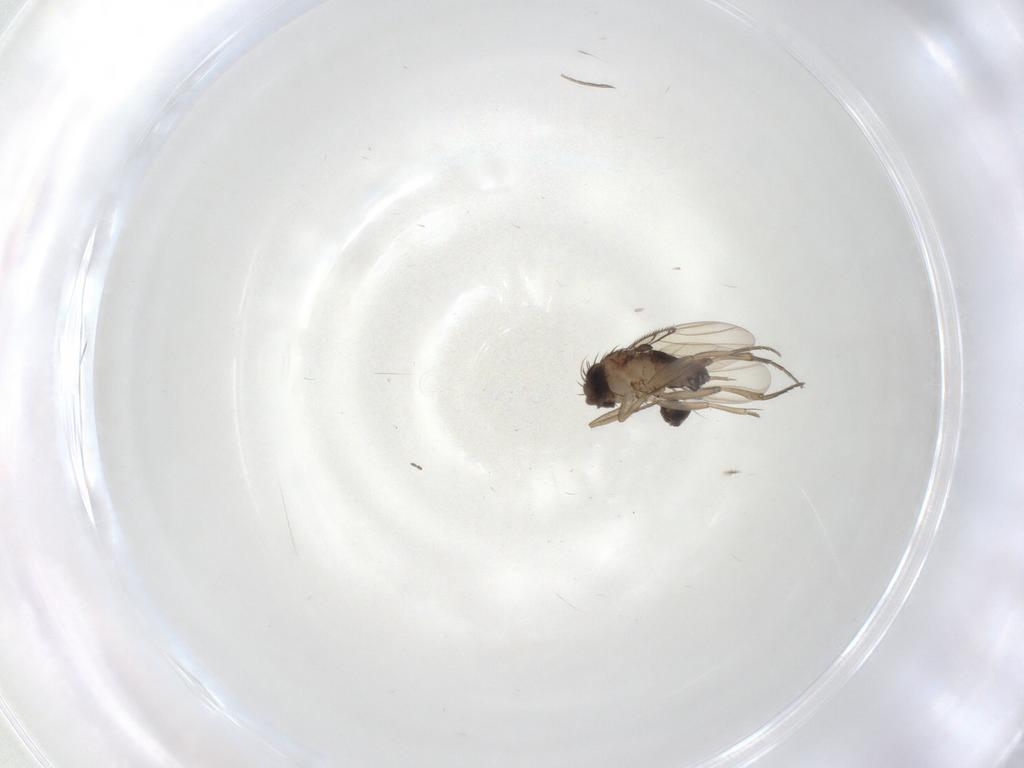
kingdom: Animalia
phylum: Arthropoda
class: Insecta
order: Diptera
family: Phoridae
